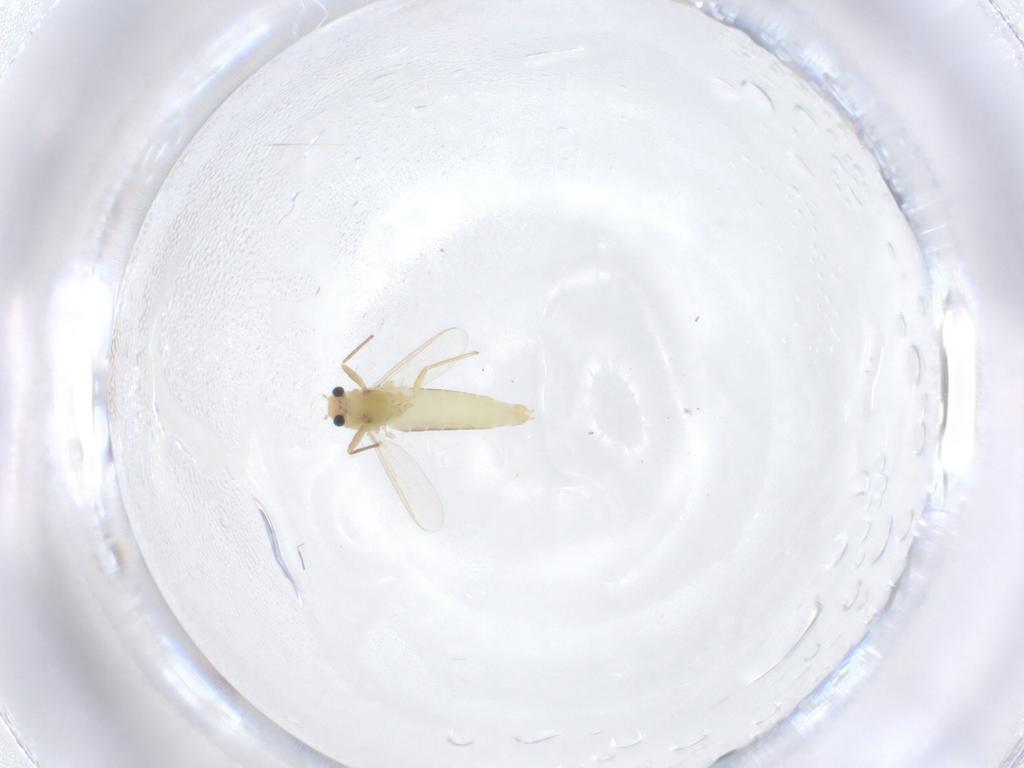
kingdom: Animalia
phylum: Arthropoda
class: Insecta
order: Diptera
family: Chironomidae
